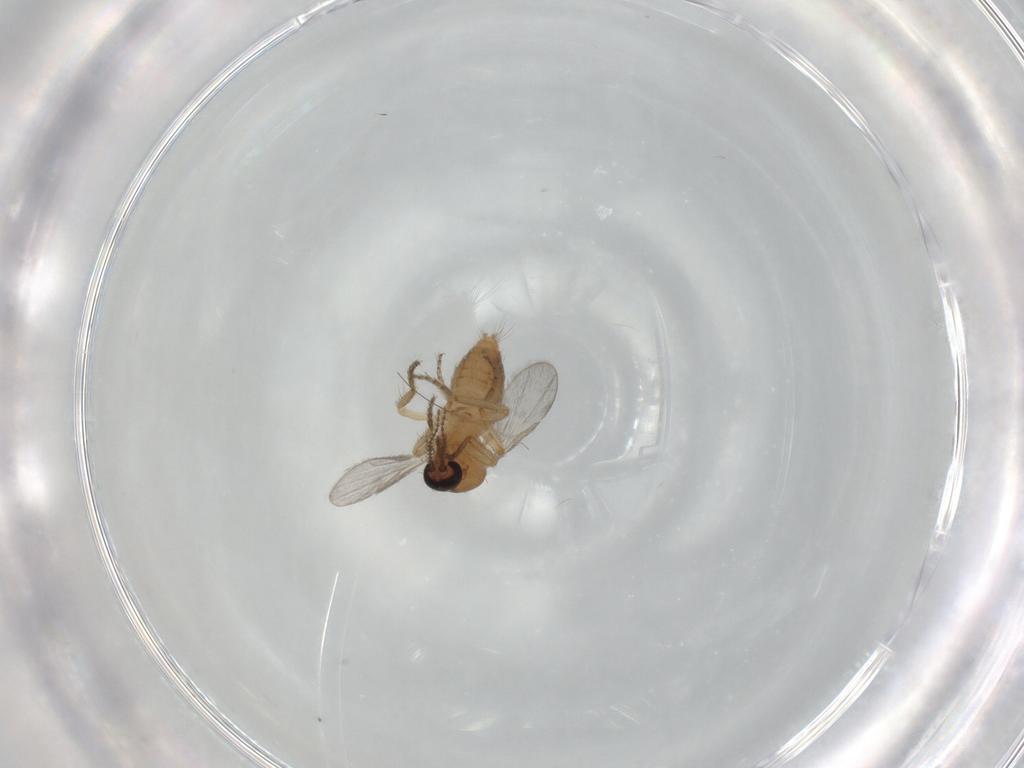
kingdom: Animalia
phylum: Arthropoda
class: Insecta
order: Diptera
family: Ceratopogonidae
